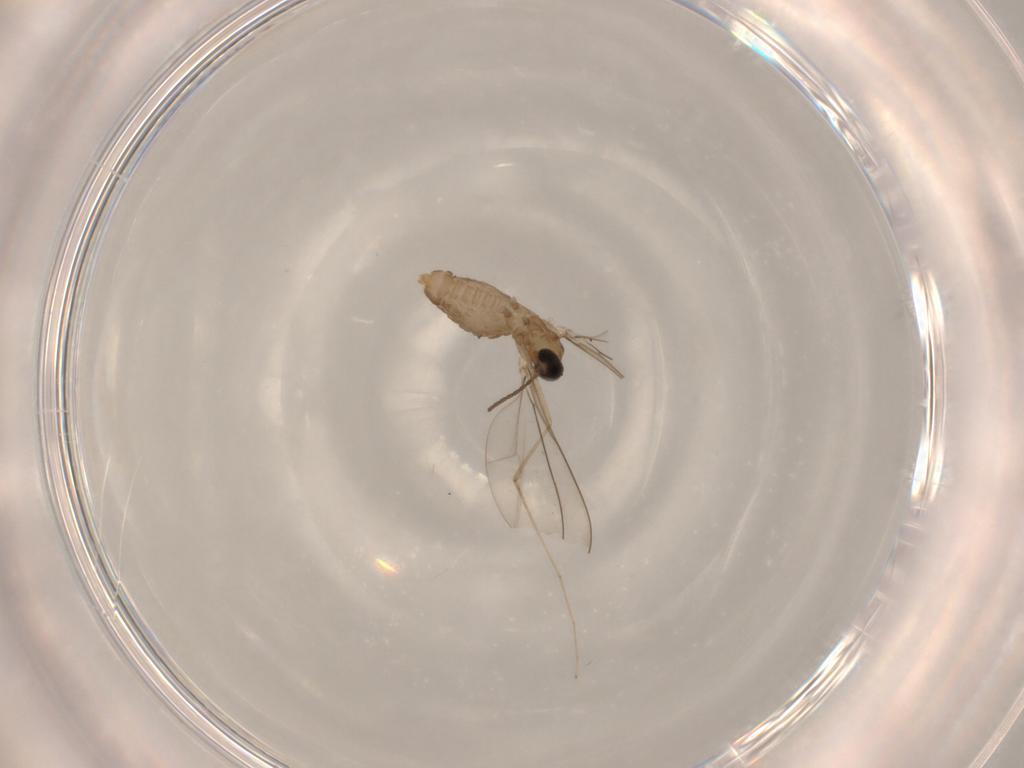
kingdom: Animalia
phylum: Arthropoda
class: Insecta
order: Diptera
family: Cecidomyiidae
